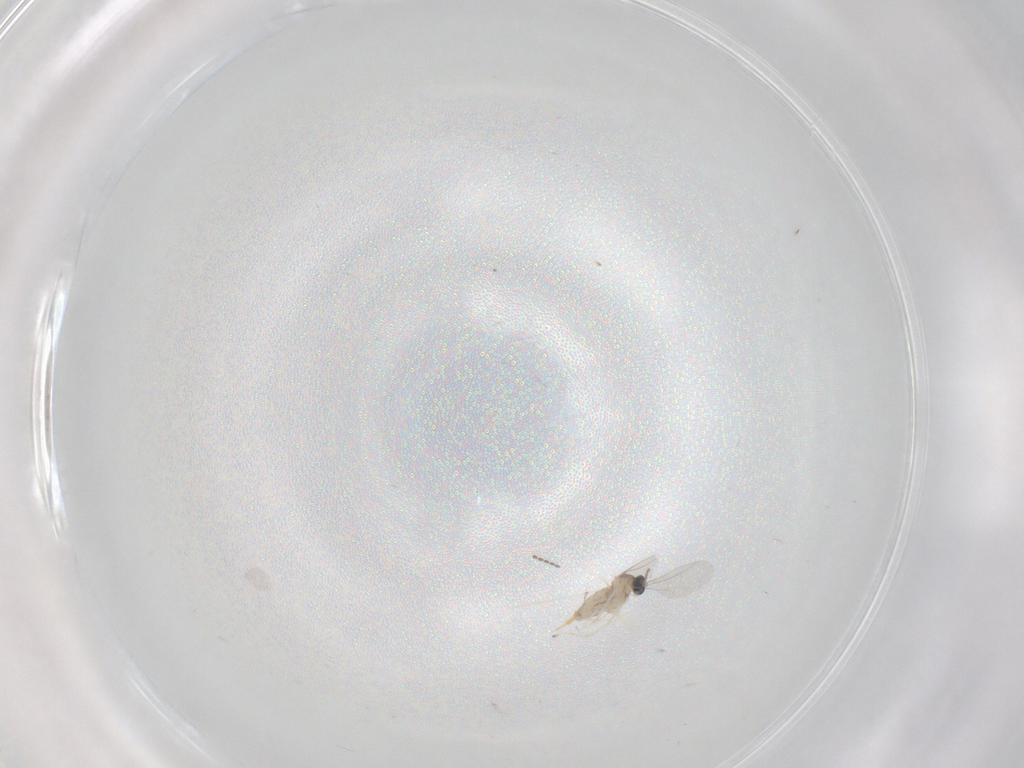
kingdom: Animalia
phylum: Arthropoda
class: Insecta
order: Diptera
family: Cecidomyiidae
